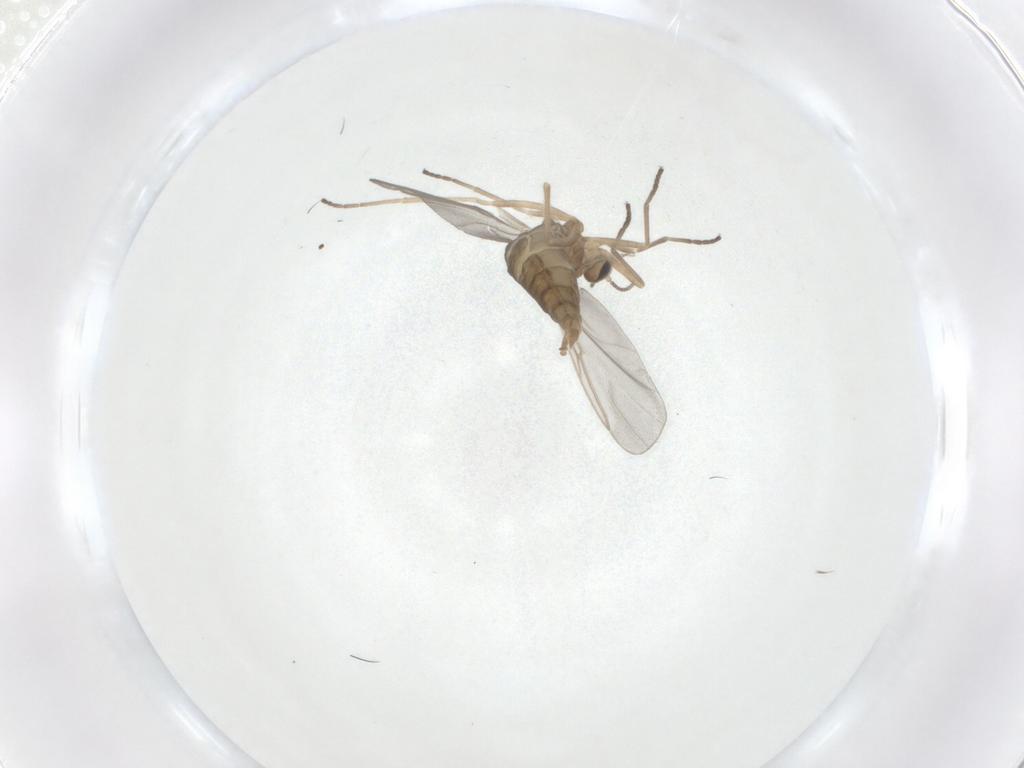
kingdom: Animalia
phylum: Arthropoda
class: Insecta
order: Diptera
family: Cecidomyiidae
